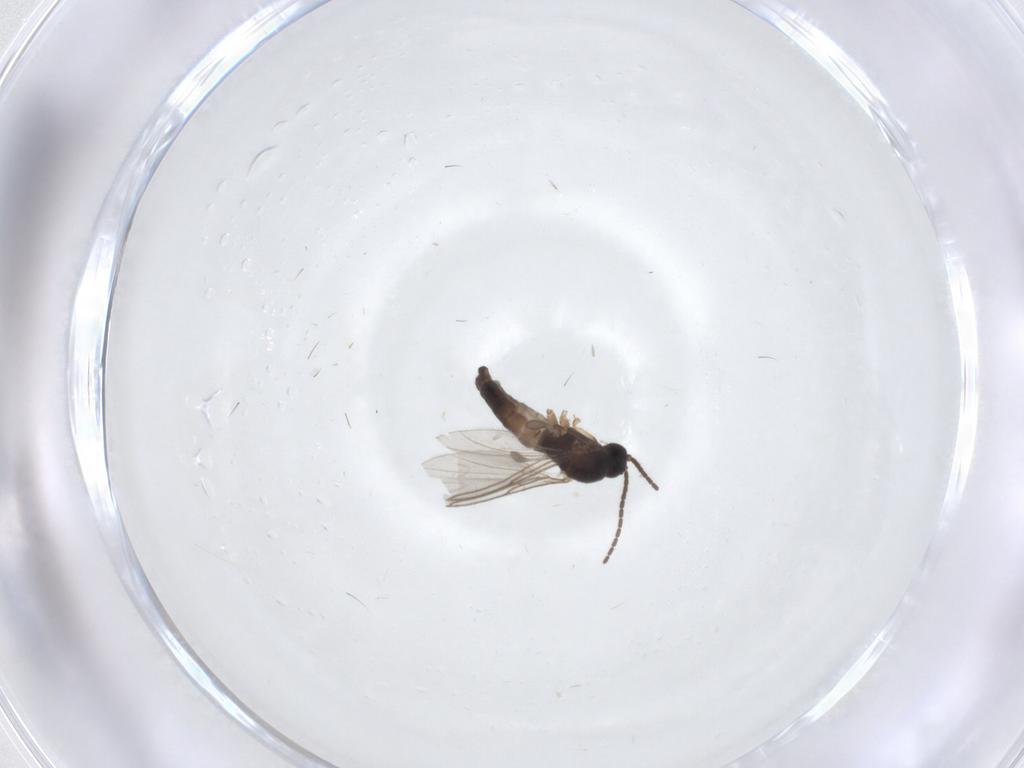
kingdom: Animalia
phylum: Arthropoda
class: Insecta
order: Diptera
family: Sciaridae
